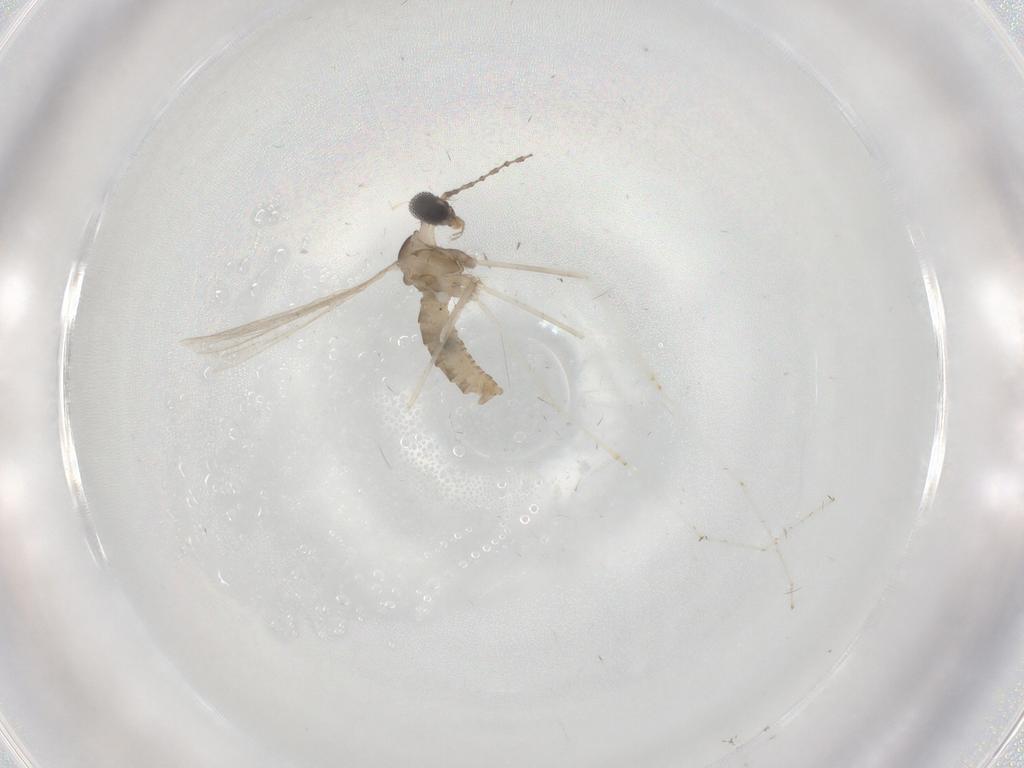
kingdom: Animalia
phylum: Arthropoda
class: Insecta
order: Diptera
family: Cecidomyiidae
